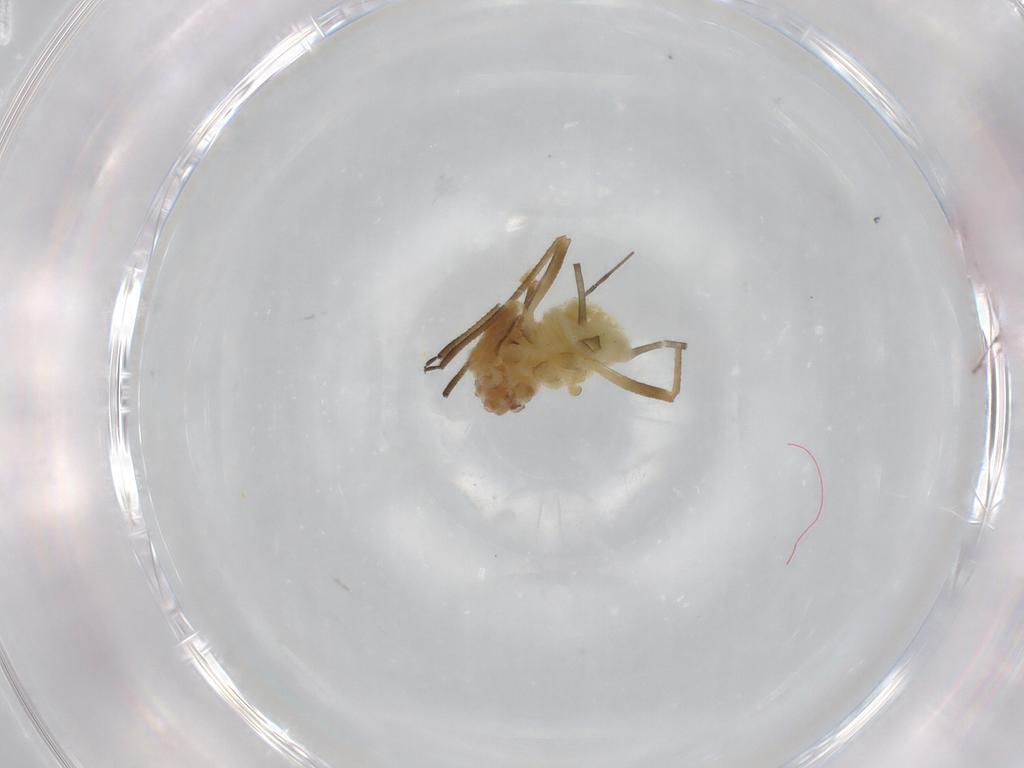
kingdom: Animalia
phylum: Arthropoda
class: Insecta
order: Hemiptera
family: Aphididae
